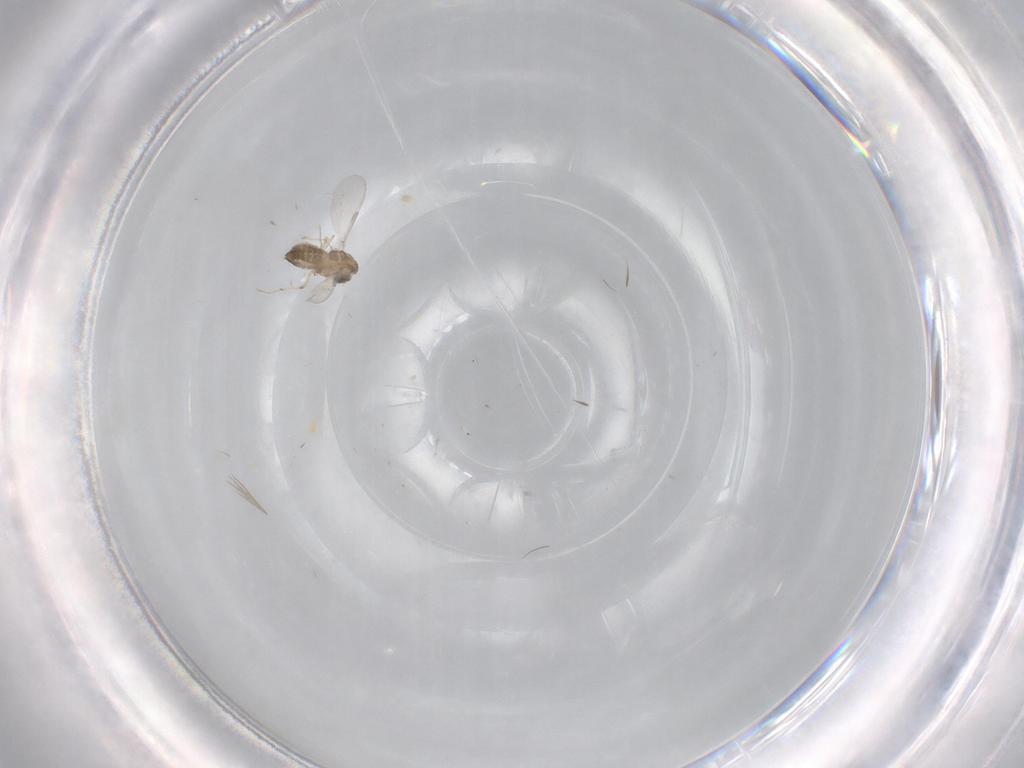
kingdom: Animalia
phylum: Arthropoda
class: Insecta
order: Diptera
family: Chironomidae
